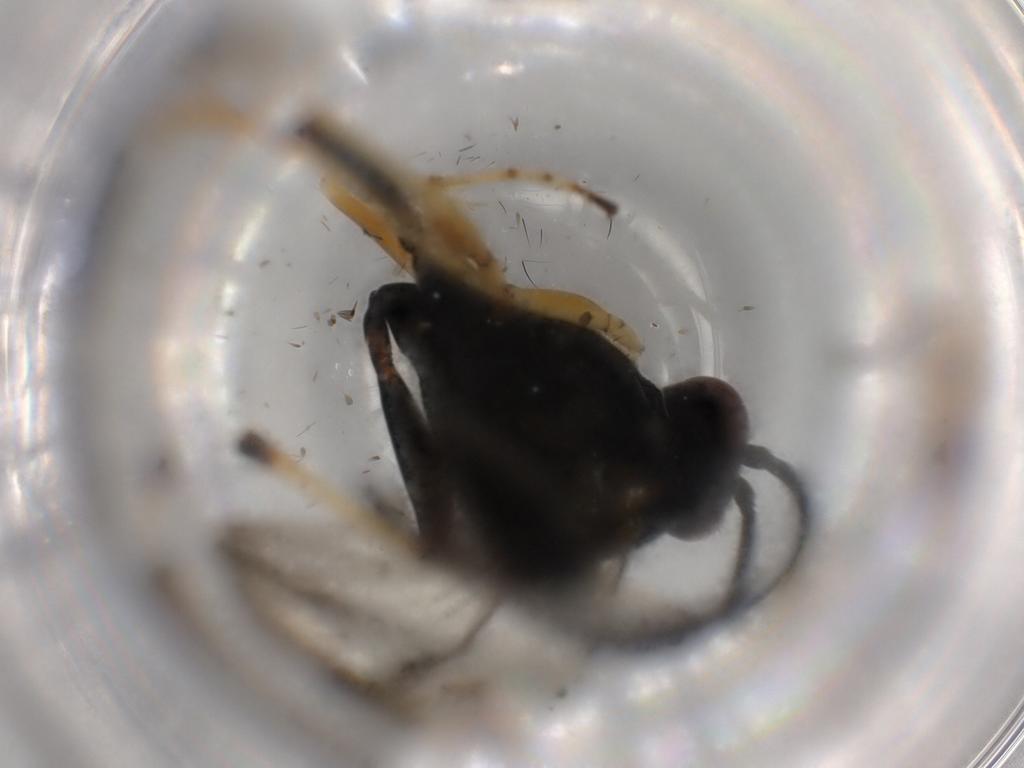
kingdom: Animalia
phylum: Arthropoda
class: Insecta
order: Hymenoptera
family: Ichneumonidae
